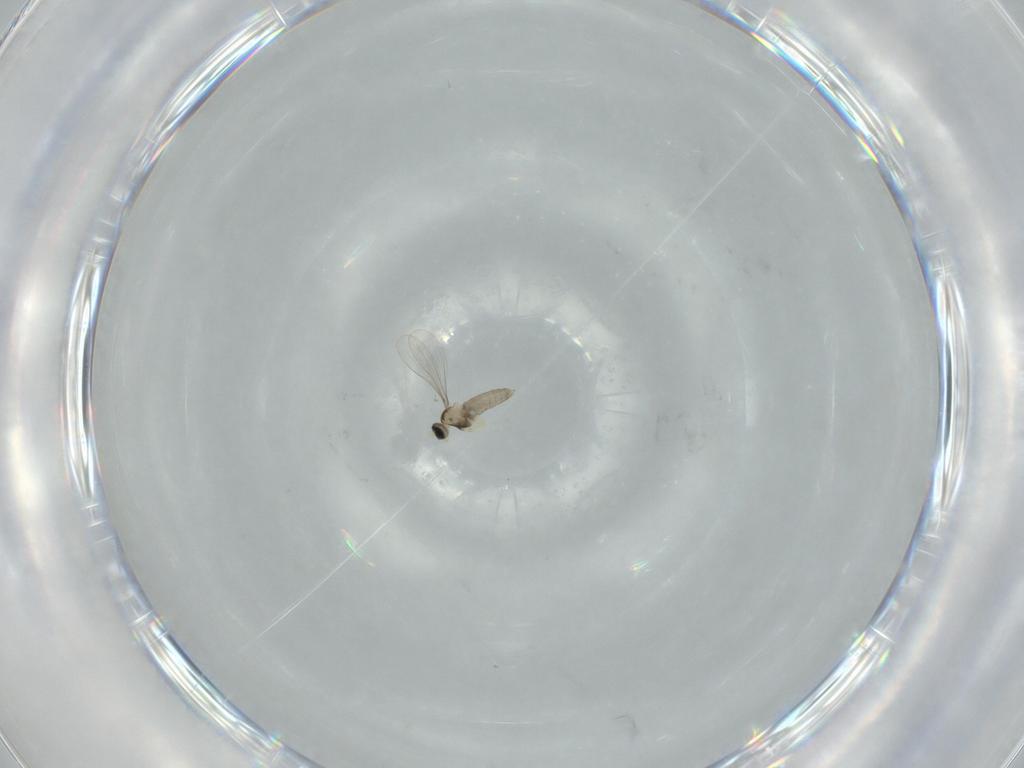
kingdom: Animalia
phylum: Arthropoda
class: Insecta
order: Diptera
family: Cecidomyiidae
